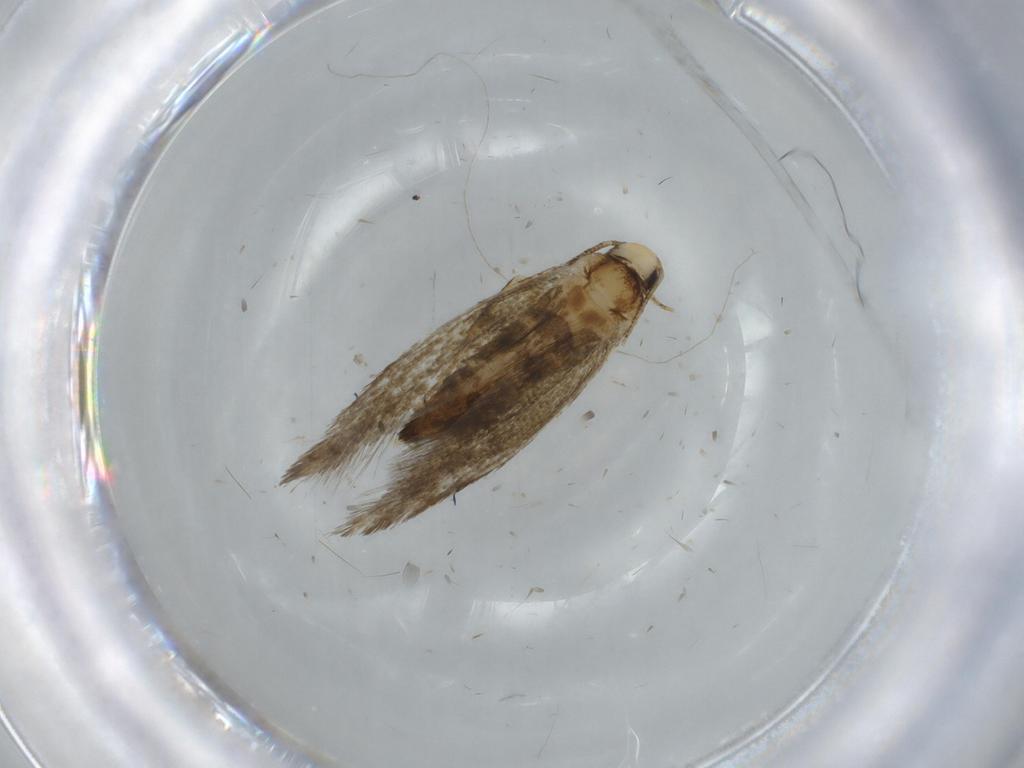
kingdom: Animalia
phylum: Arthropoda
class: Insecta
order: Lepidoptera
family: Tineidae
